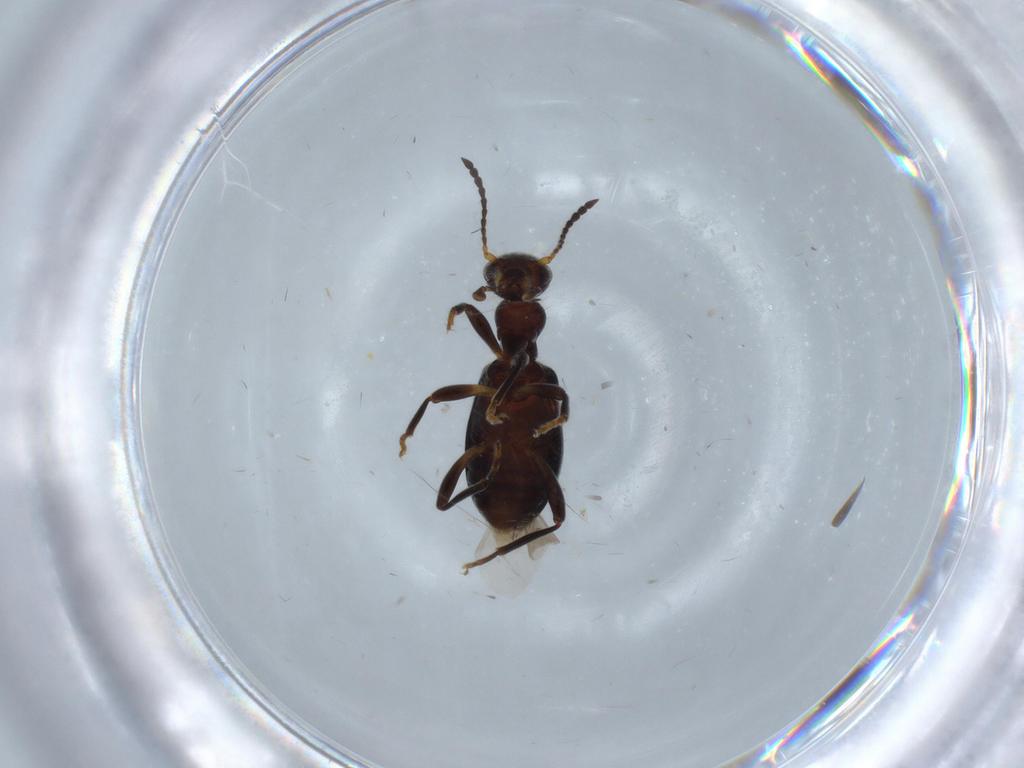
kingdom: Animalia
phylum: Arthropoda
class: Insecta
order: Coleoptera
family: Anthicidae
